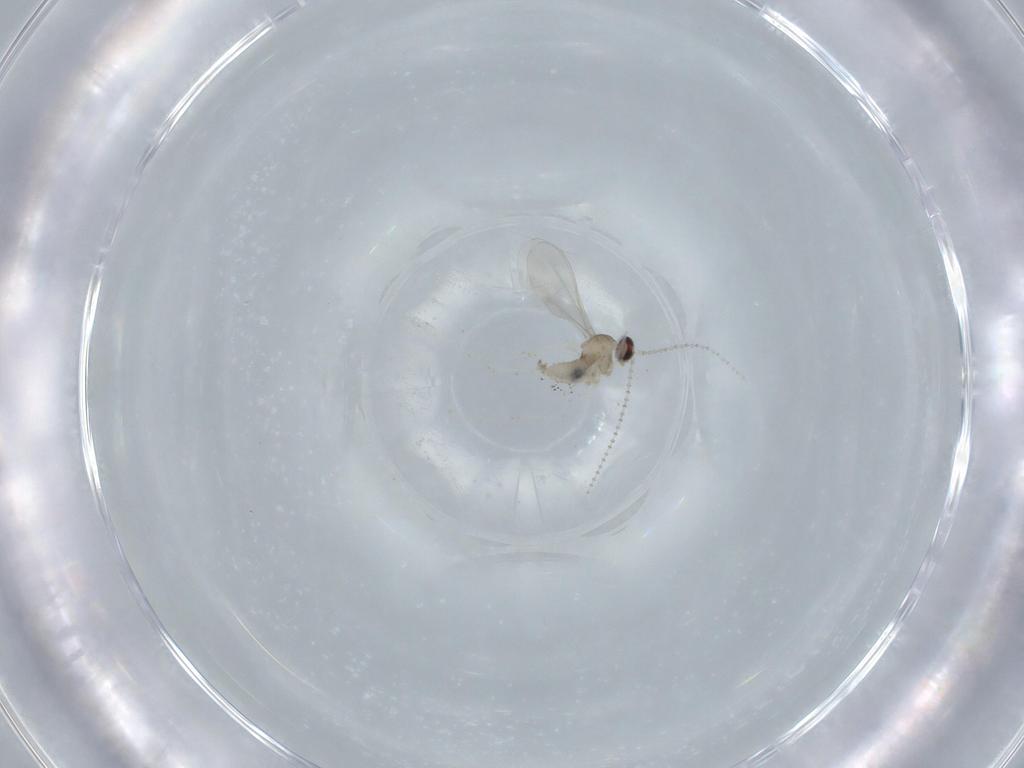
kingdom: Animalia
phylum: Arthropoda
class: Insecta
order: Diptera
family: Cecidomyiidae
